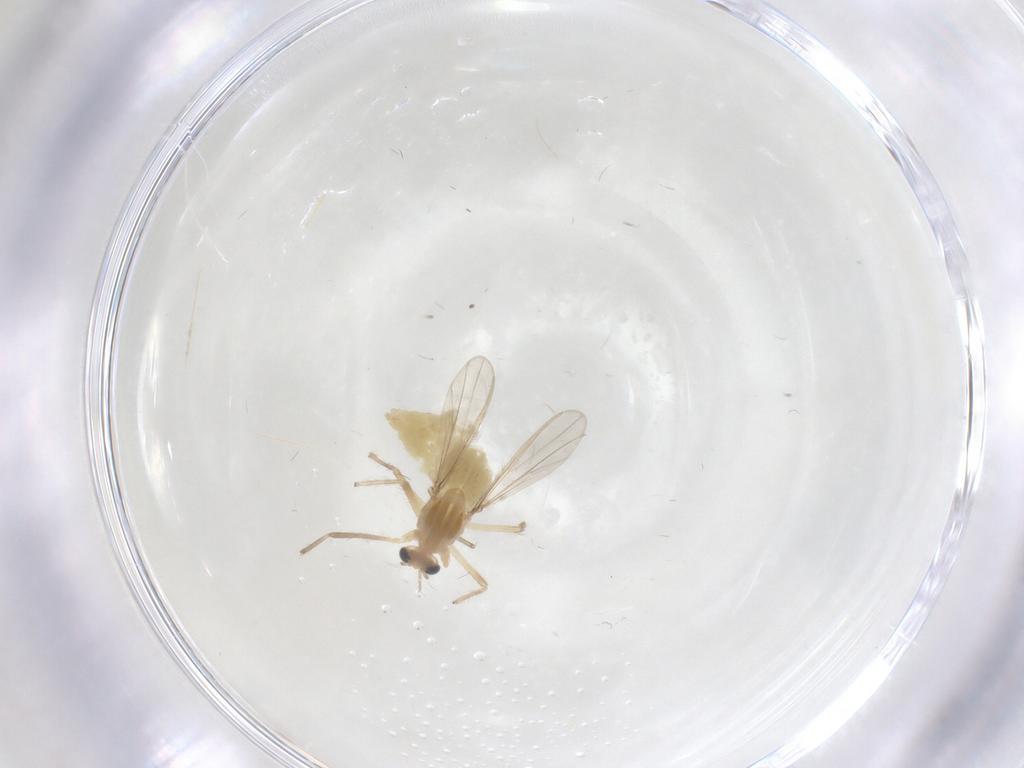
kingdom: Animalia
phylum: Arthropoda
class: Insecta
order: Diptera
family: Chironomidae
